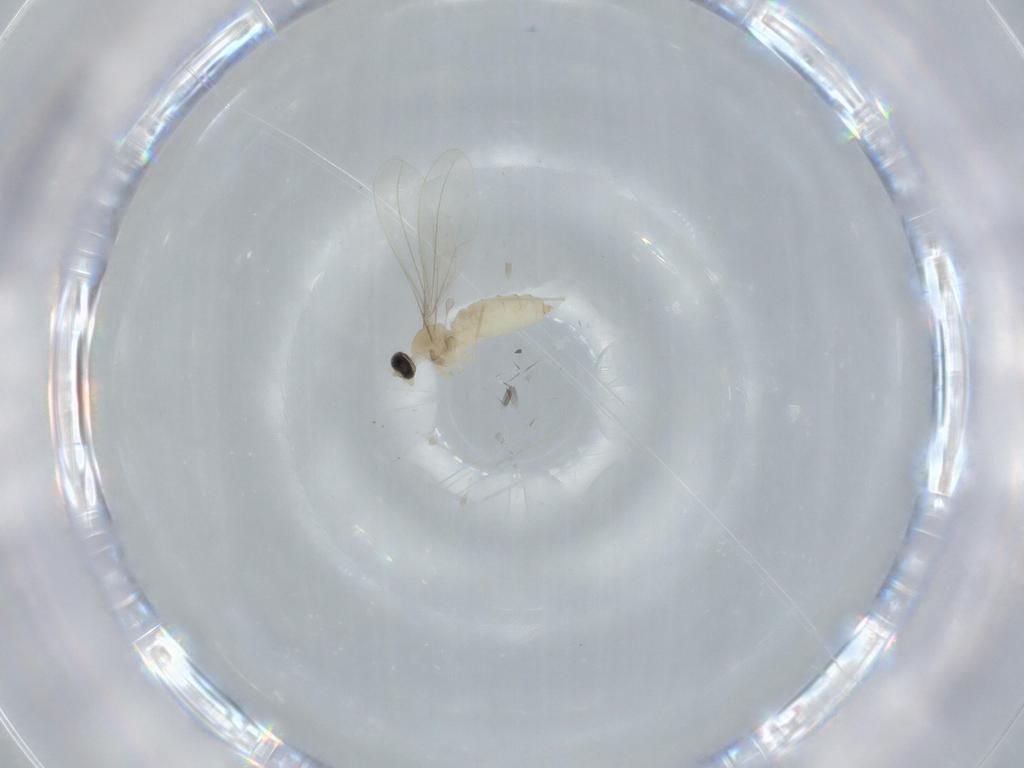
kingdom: Animalia
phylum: Arthropoda
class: Insecta
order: Diptera
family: Cecidomyiidae
